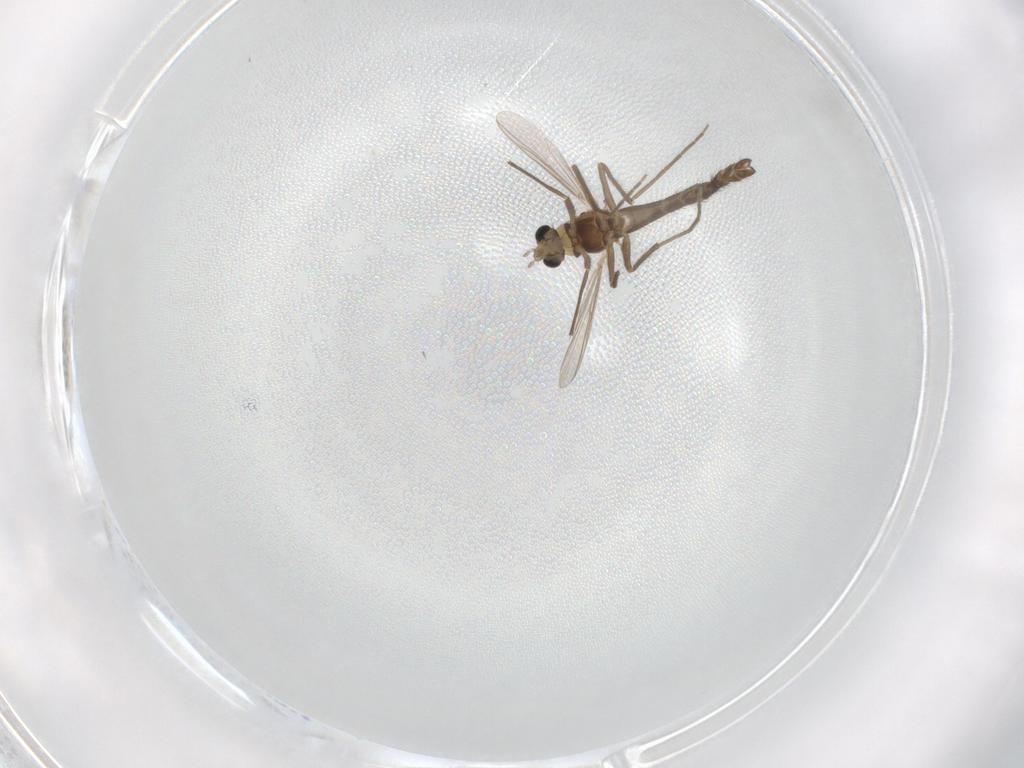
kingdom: Animalia
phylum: Arthropoda
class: Insecta
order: Diptera
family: Chironomidae
